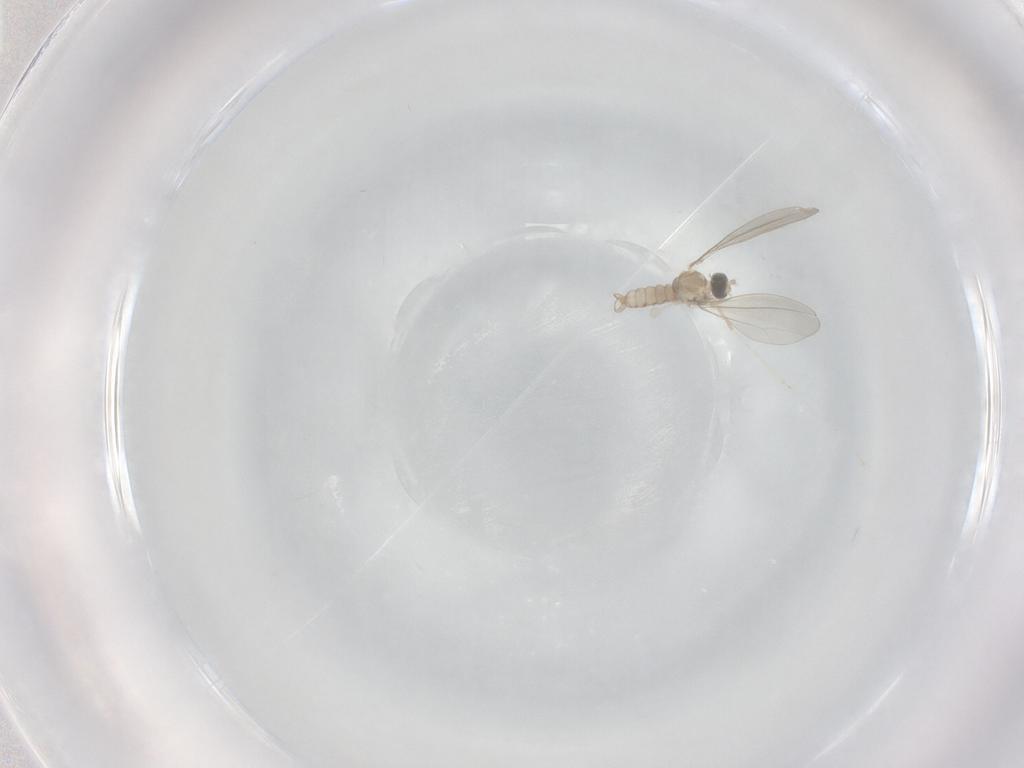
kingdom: Animalia
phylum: Arthropoda
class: Insecta
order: Diptera
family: Cecidomyiidae
